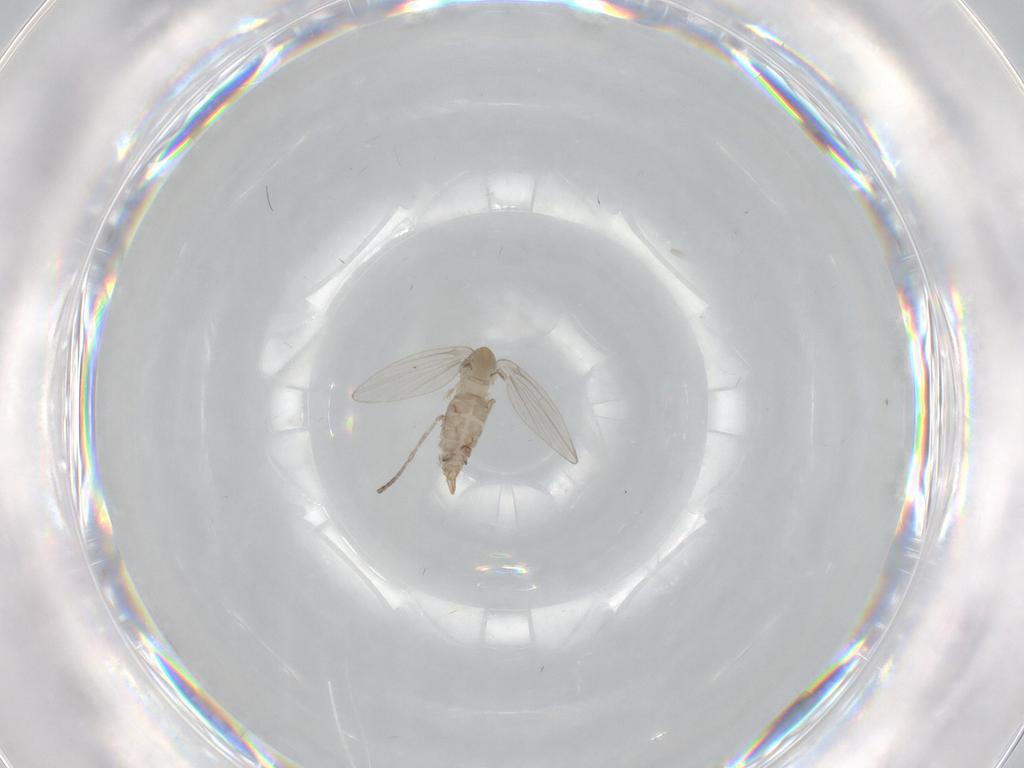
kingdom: Animalia
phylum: Arthropoda
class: Insecta
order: Diptera
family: Psychodidae
